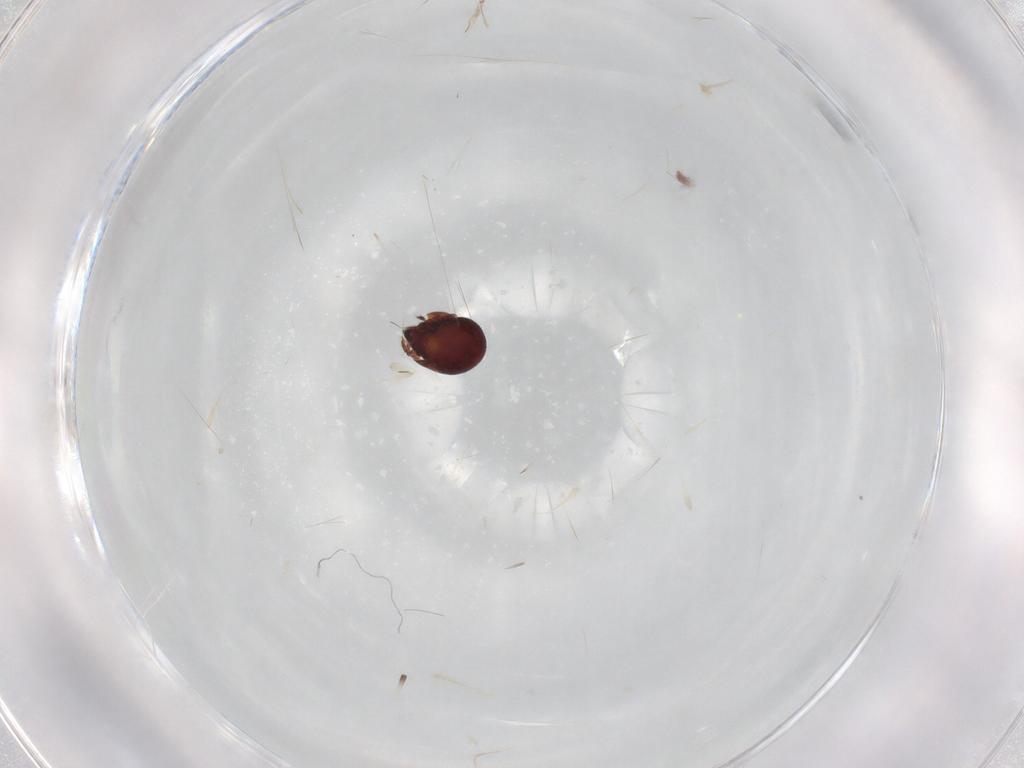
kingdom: Animalia
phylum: Arthropoda
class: Arachnida
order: Sarcoptiformes
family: Humerobatidae
